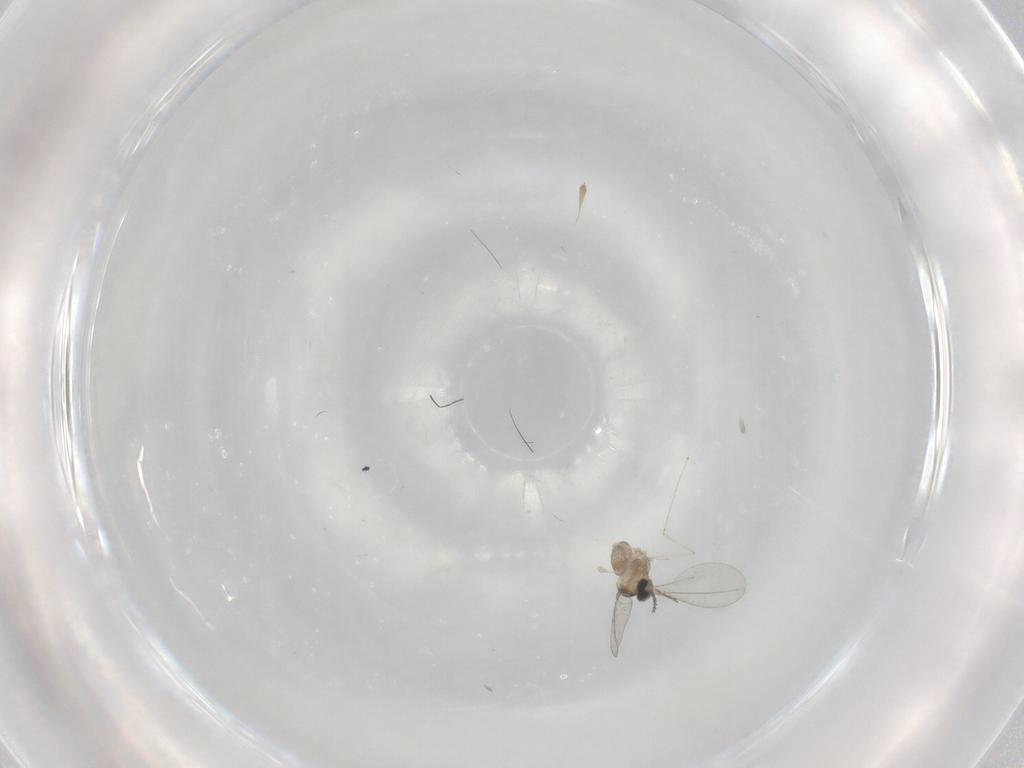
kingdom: Animalia
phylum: Arthropoda
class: Insecta
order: Diptera
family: Cecidomyiidae
